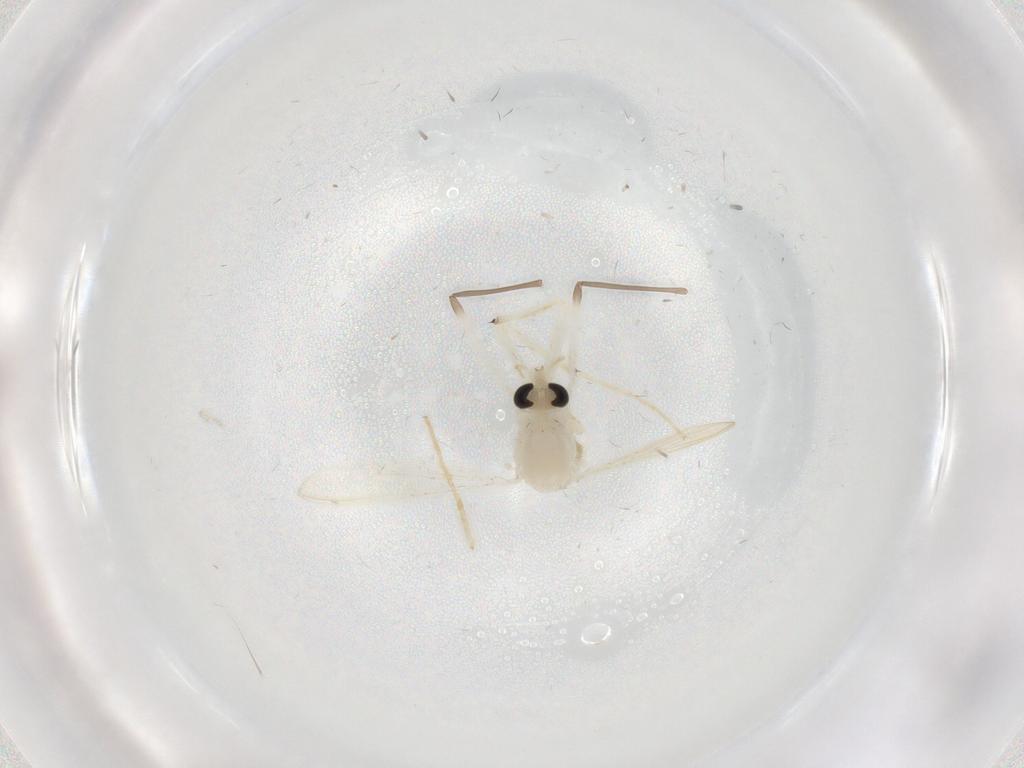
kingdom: Animalia
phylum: Arthropoda
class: Insecta
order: Diptera
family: Chironomidae
